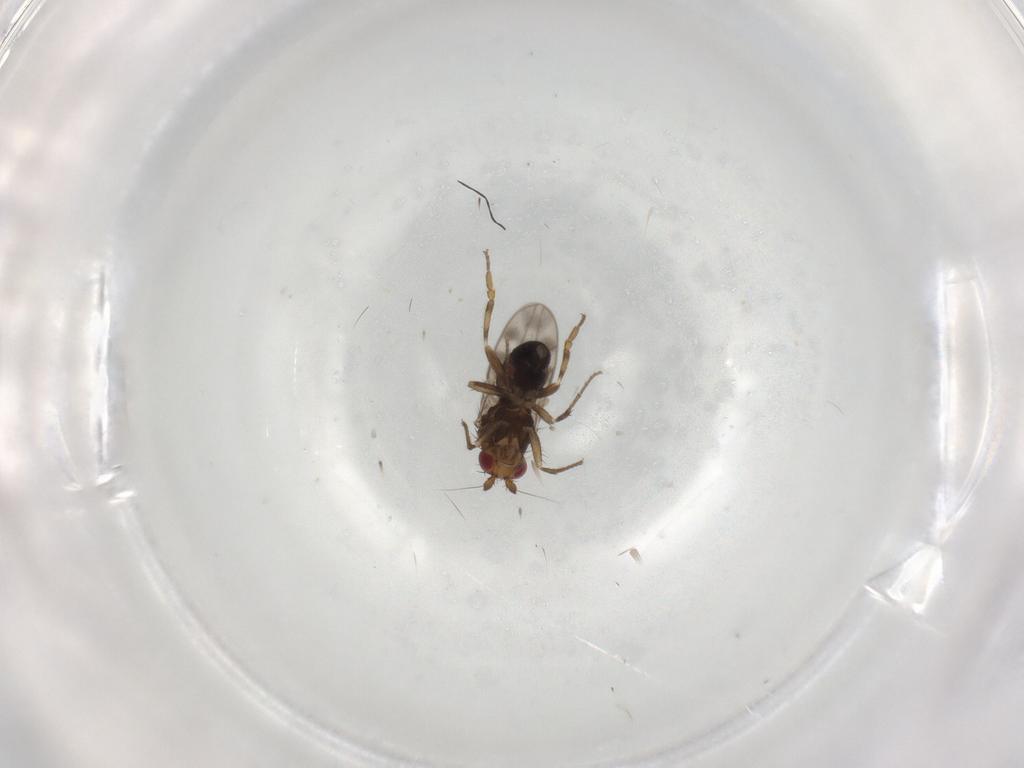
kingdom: Animalia
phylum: Arthropoda
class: Insecta
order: Diptera
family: Sphaeroceridae
